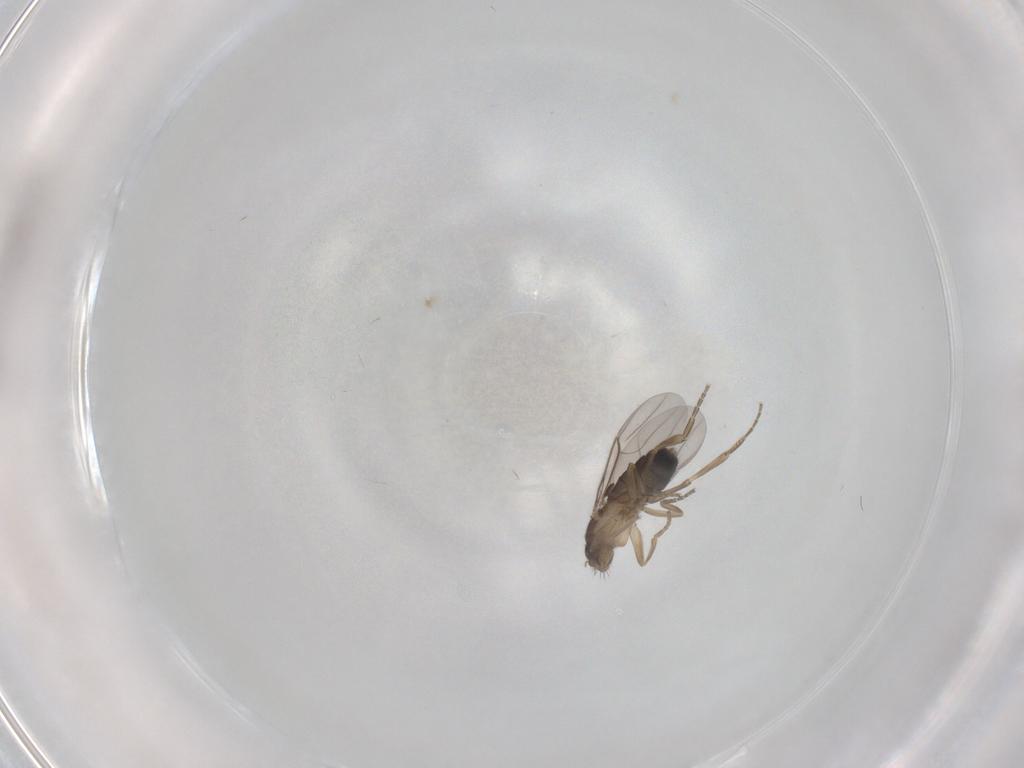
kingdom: Animalia
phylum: Arthropoda
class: Insecta
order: Diptera
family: Phoridae
